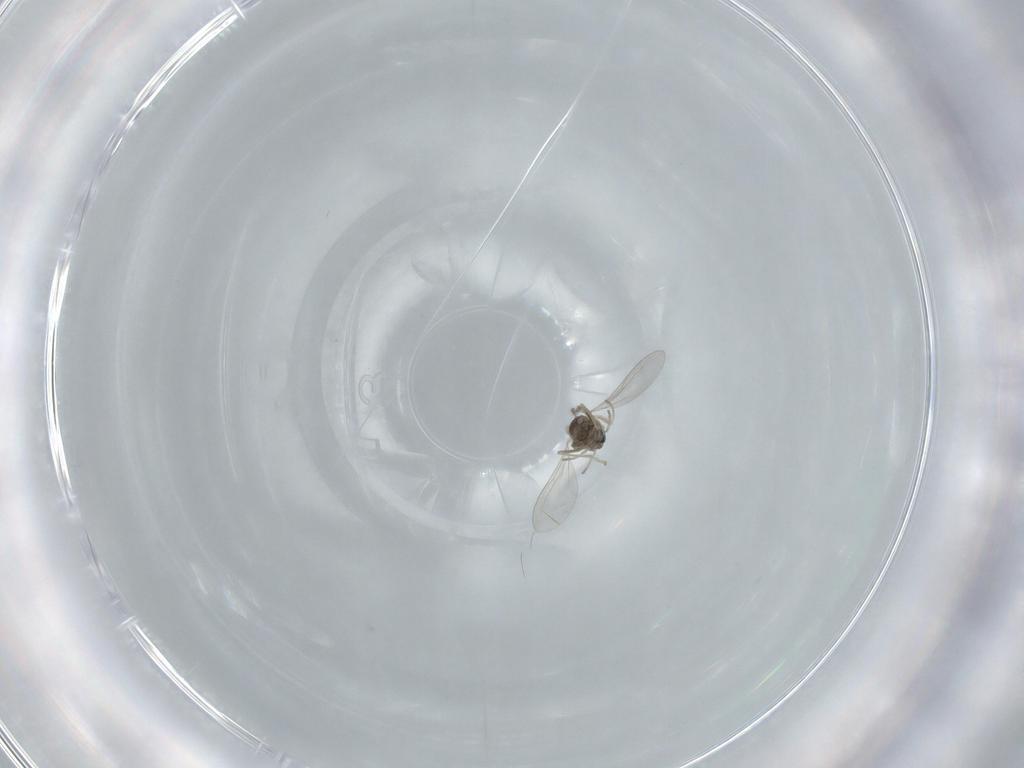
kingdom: Animalia
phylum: Arthropoda
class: Insecta
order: Diptera
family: Cecidomyiidae
